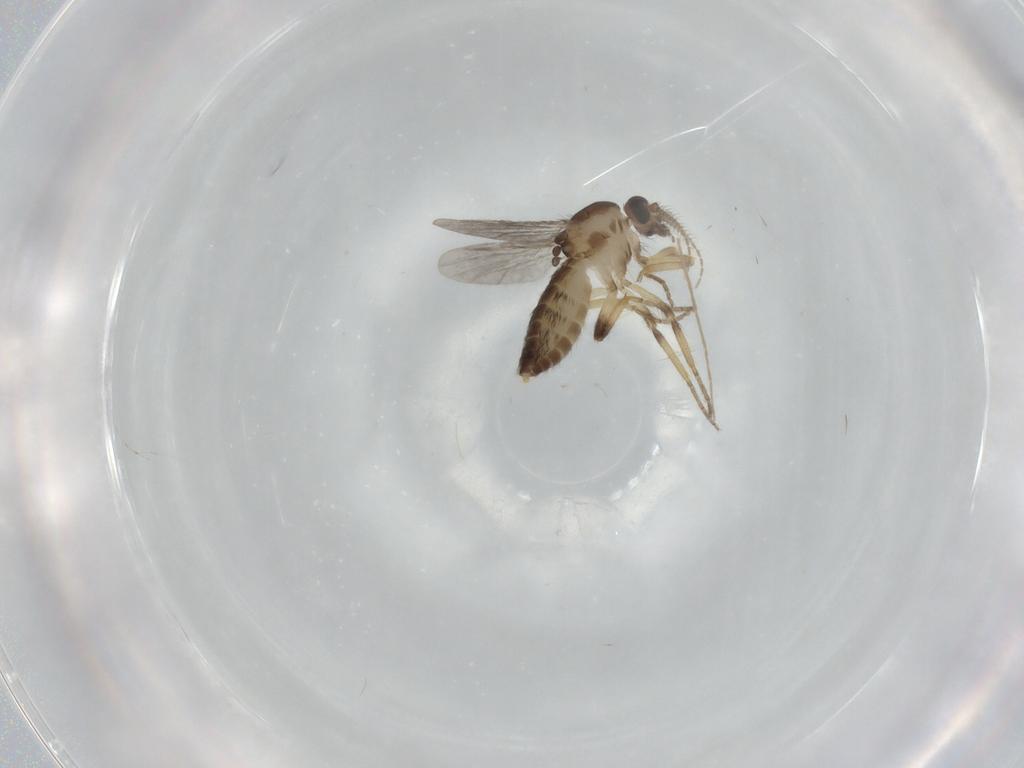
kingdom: Animalia
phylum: Arthropoda
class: Insecta
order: Diptera
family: Ceratopogonidae
